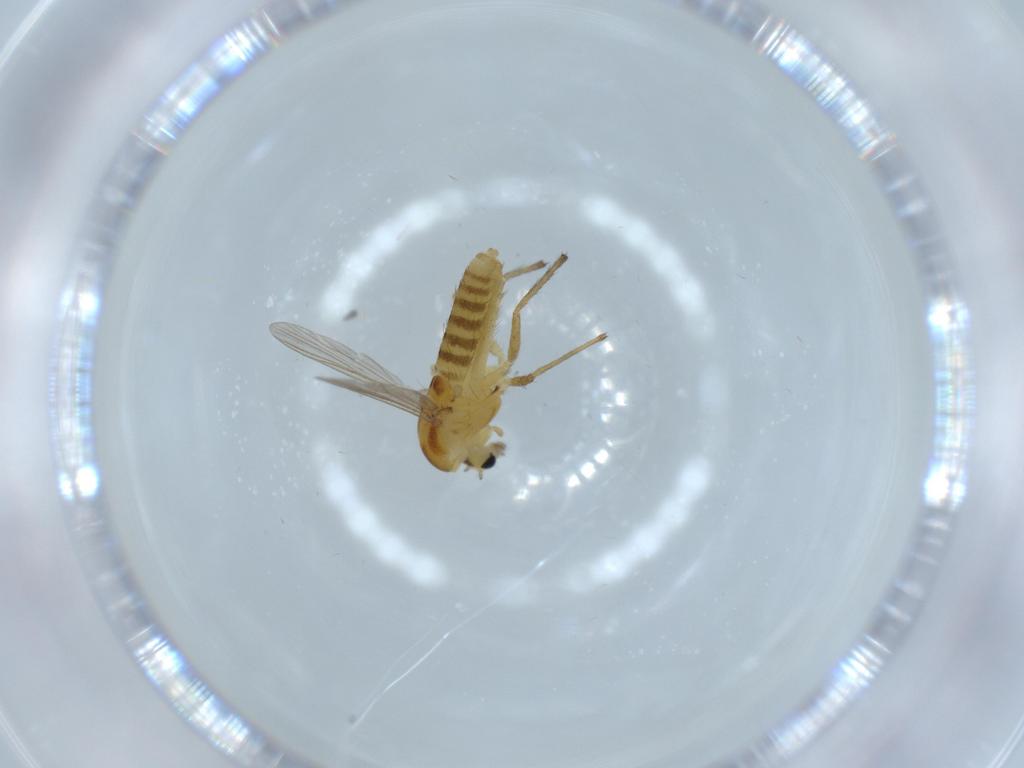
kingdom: Animalia
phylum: Arthropoda
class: Insecta
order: Diptera
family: Chironomidae
